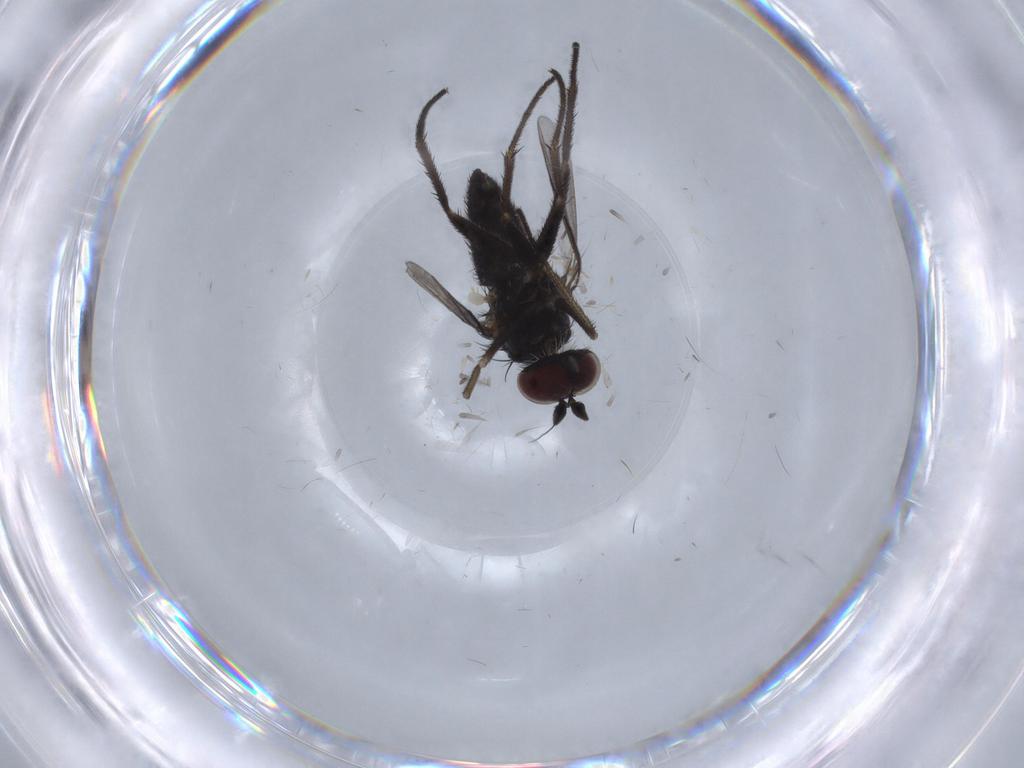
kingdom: Animalia
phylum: Arthropoda
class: Insecta
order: Diptera
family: Dolichopodidae
